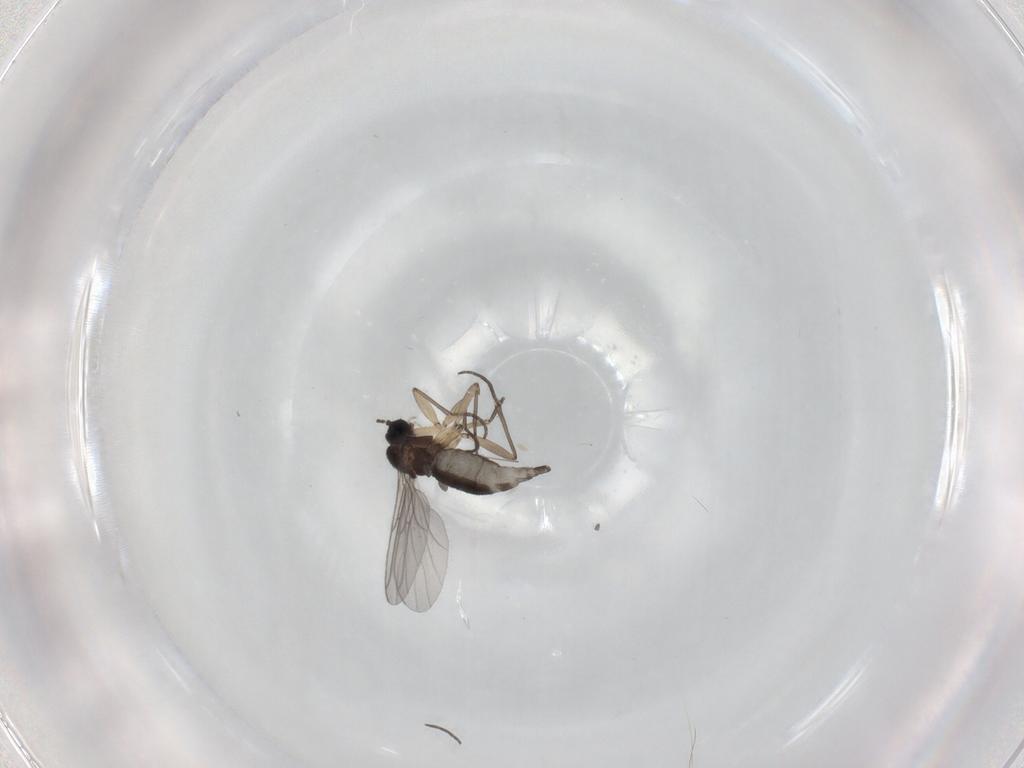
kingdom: Animalia
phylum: Arthropoda
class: Insecta
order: Diptera
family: Sciaridae
